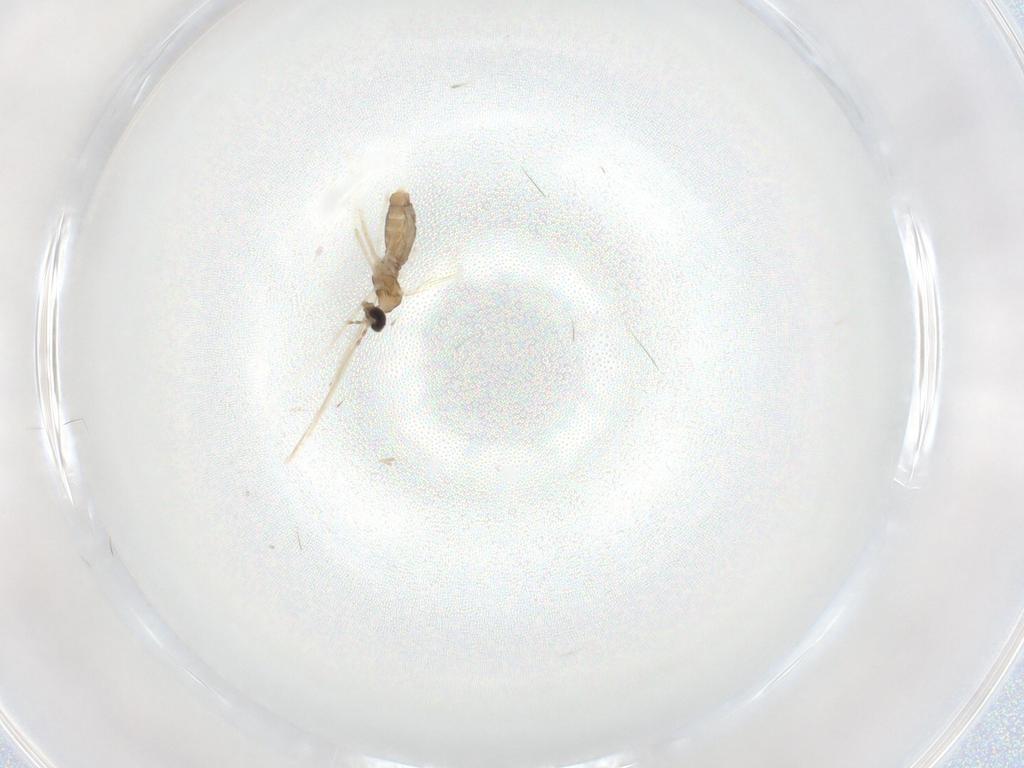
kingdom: Animalia
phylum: Arthropoda
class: Insecta
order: Diptera
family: Cecidomyiidae
